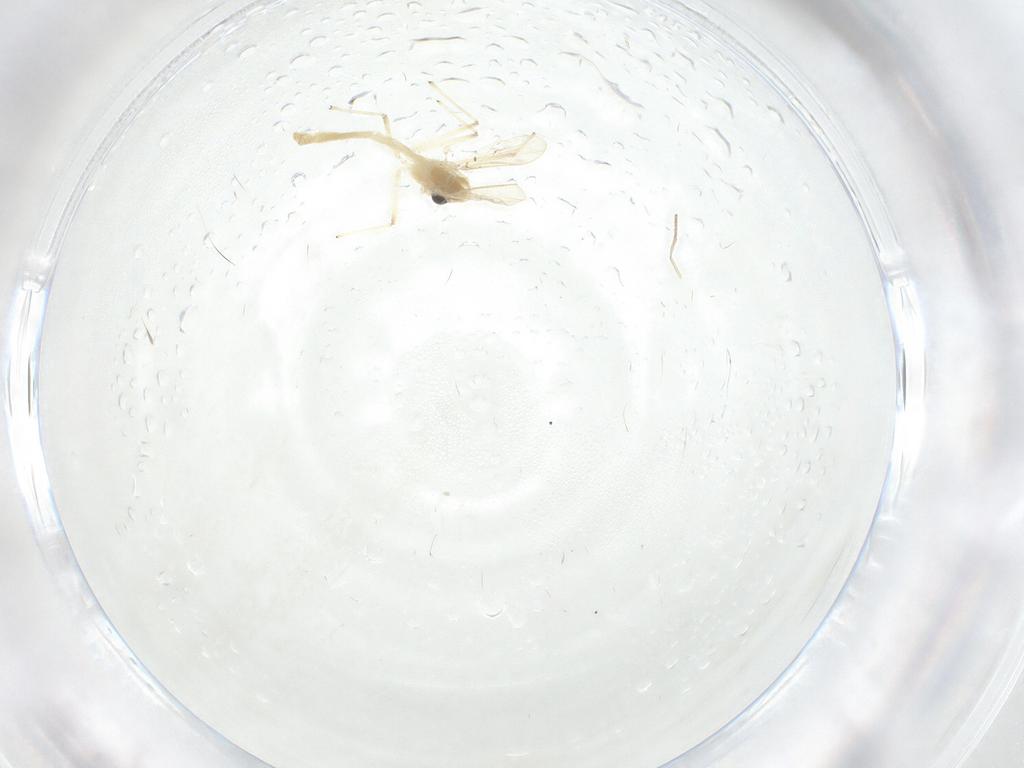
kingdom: Animalia
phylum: Arthropoda
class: Insecta
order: Diptera
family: Chironomidae
